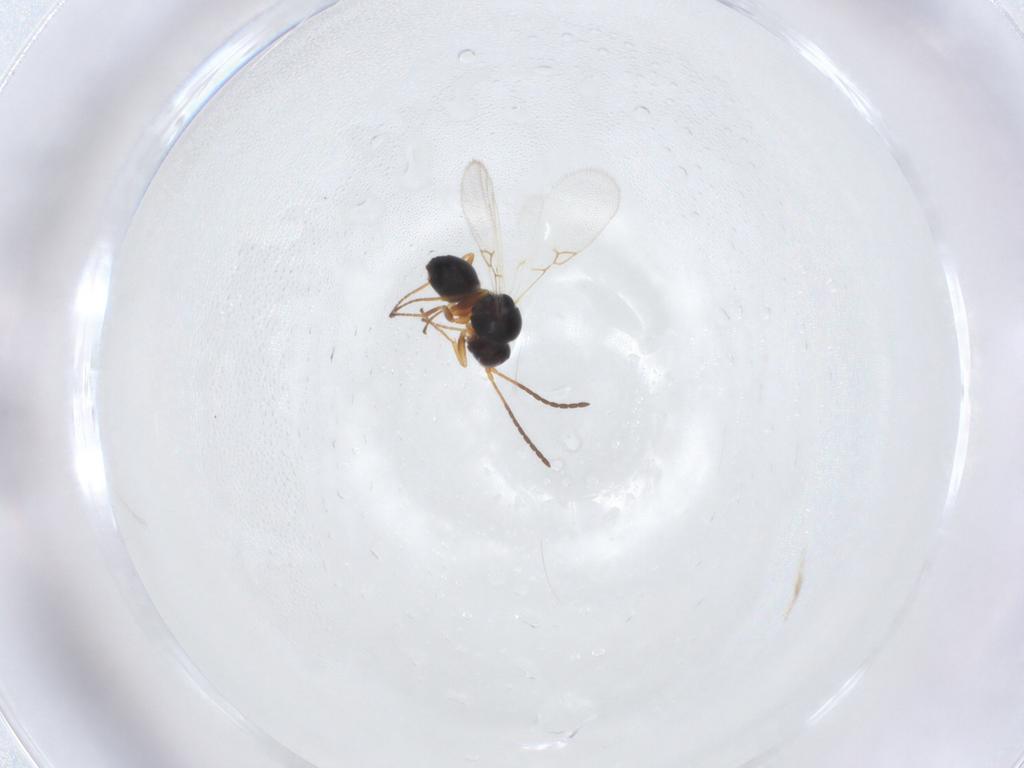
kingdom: Animalia
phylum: Arthropoda
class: Insecta
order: Hymenoptera
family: Figitidae
